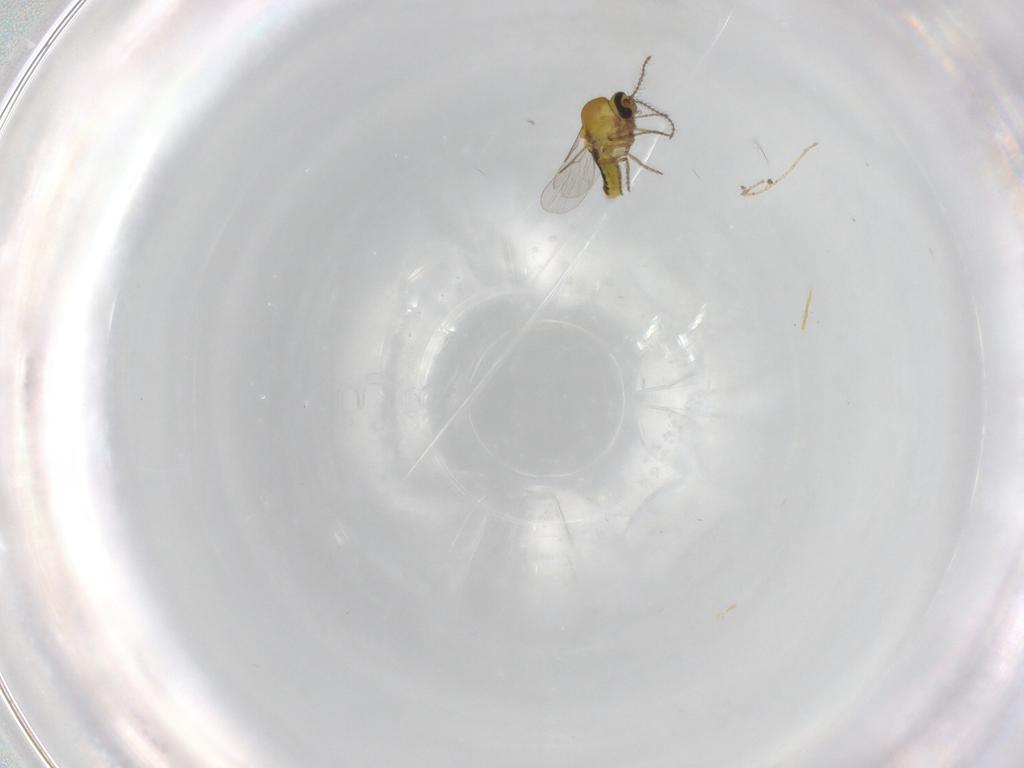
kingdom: Animalia
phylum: Arthropoda
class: Insecta
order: Diptera
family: Ceratopogonidae
